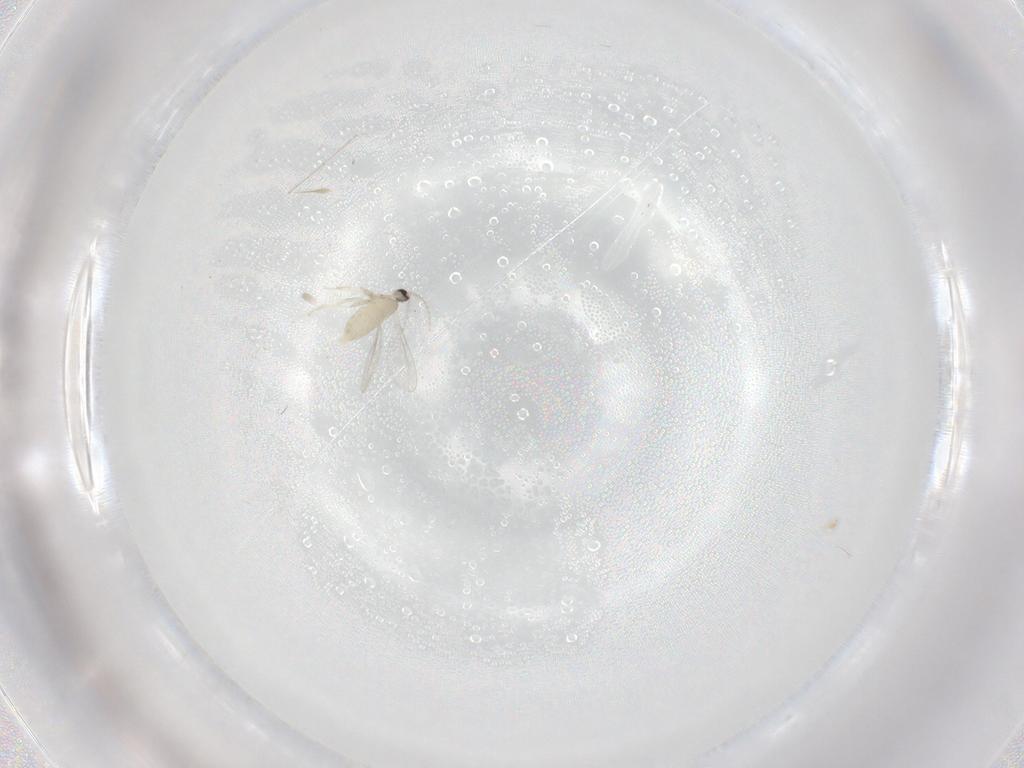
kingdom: Animalia
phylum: Arthropoda
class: Insecta
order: Diptera
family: Cecidomyiidae
